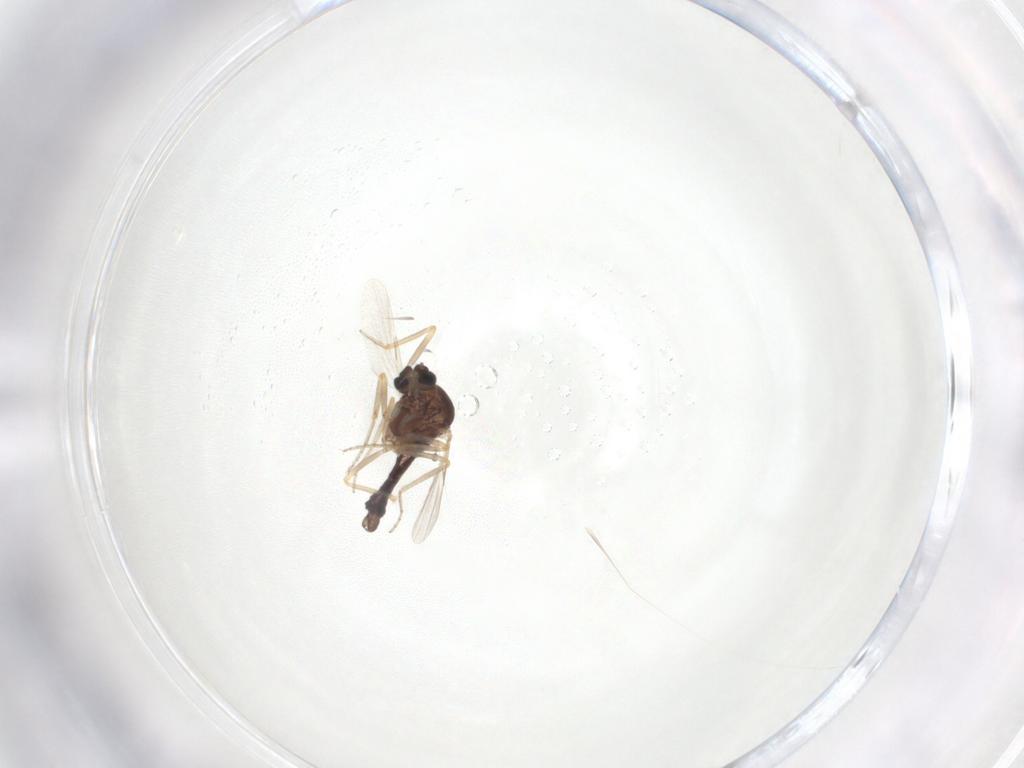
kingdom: Animalia
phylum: Arthropoda
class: Insecta
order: Diptera
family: Ceratopogonidae
